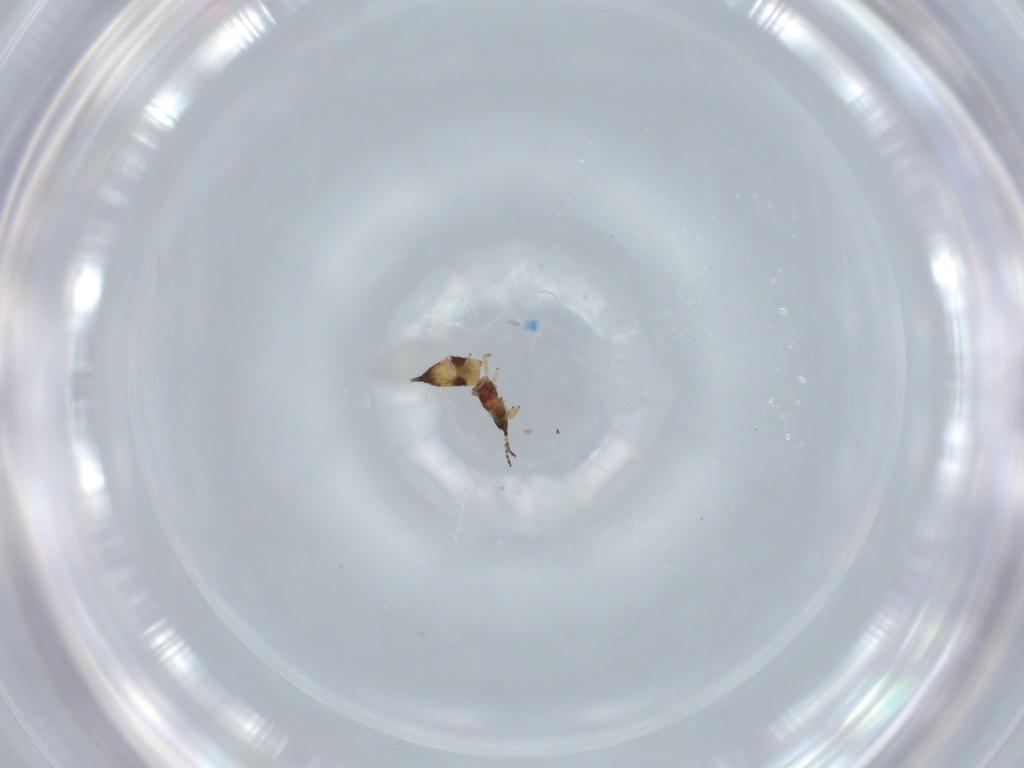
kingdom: Animalia
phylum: Arthropoda
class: Insecta
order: Thysanoptera
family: Phlaeothripidae
